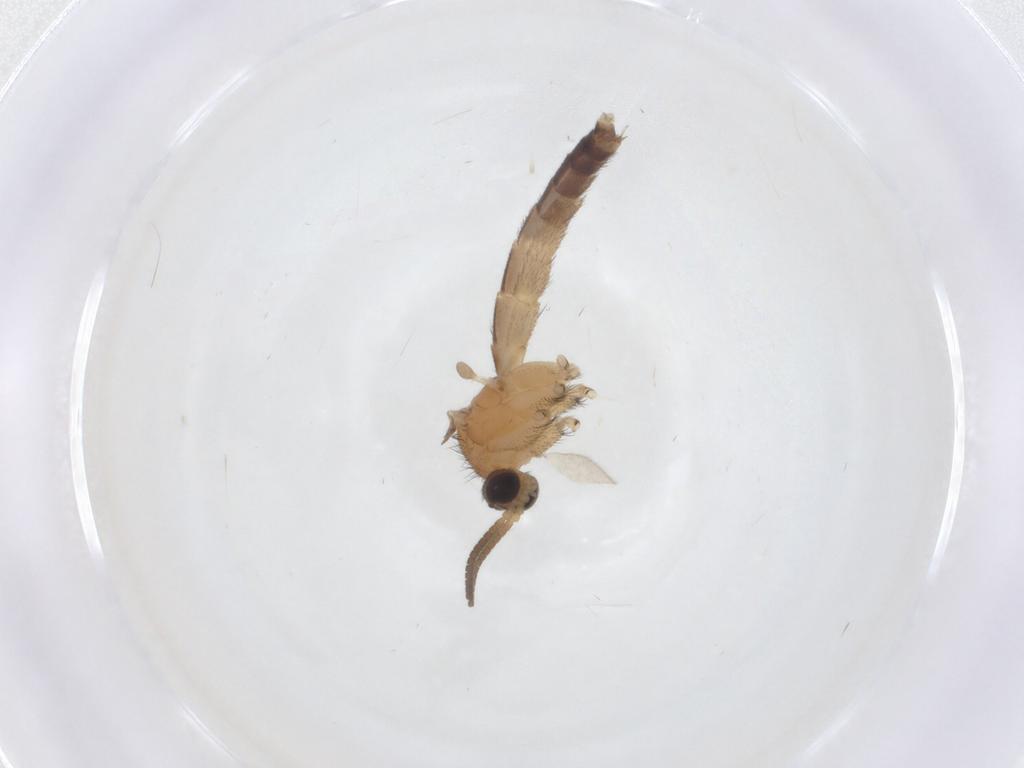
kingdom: Animalia
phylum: Arthropoda
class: Insecta
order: Diptera
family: Keroplatidae
